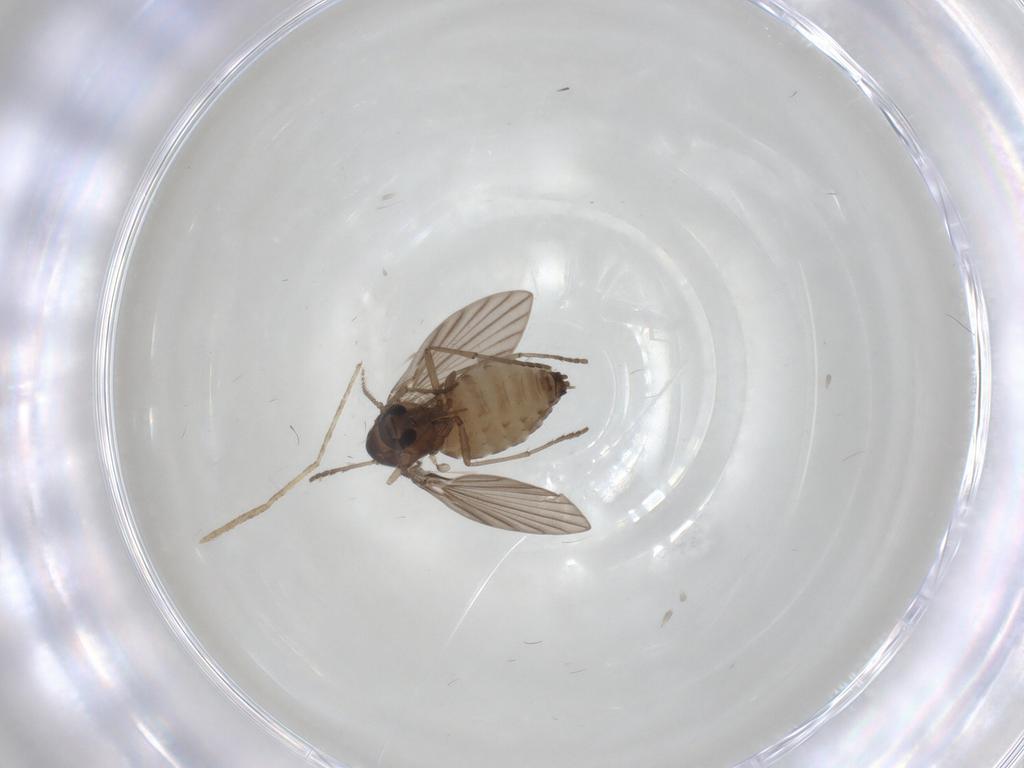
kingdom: Animalia
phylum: Arthropoda
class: Insecta
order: Diptera
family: Psychodidae
